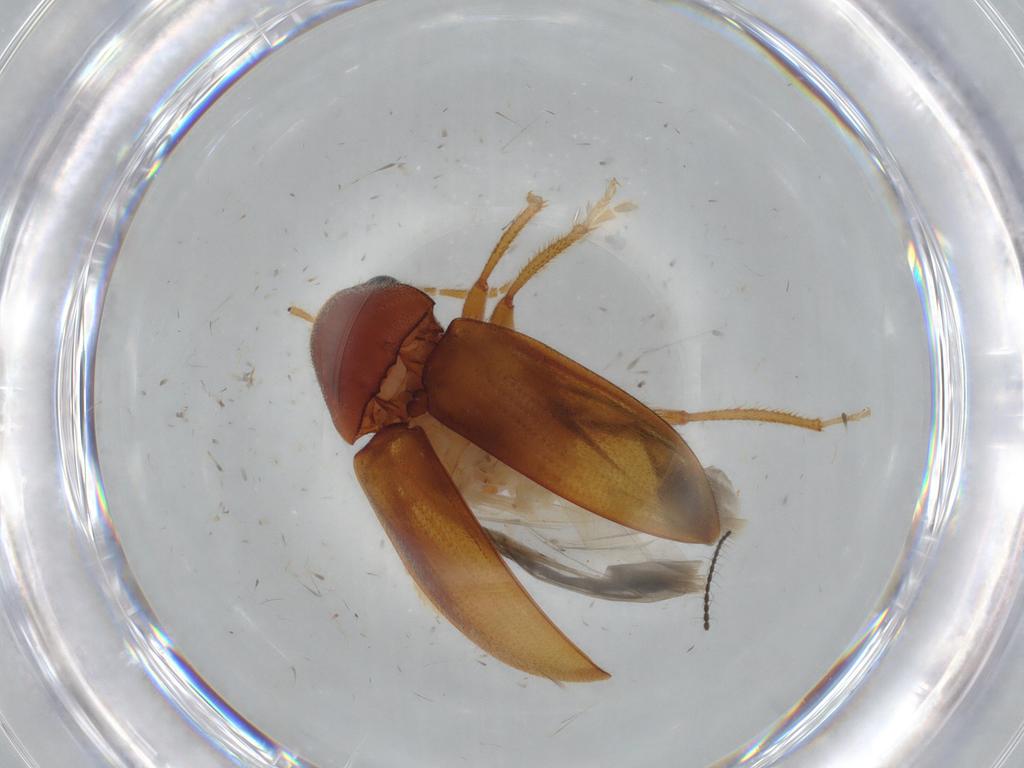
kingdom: Animalia
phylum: Arthropoda
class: Insecta
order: Coleoptera
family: Ptilodactylidae
